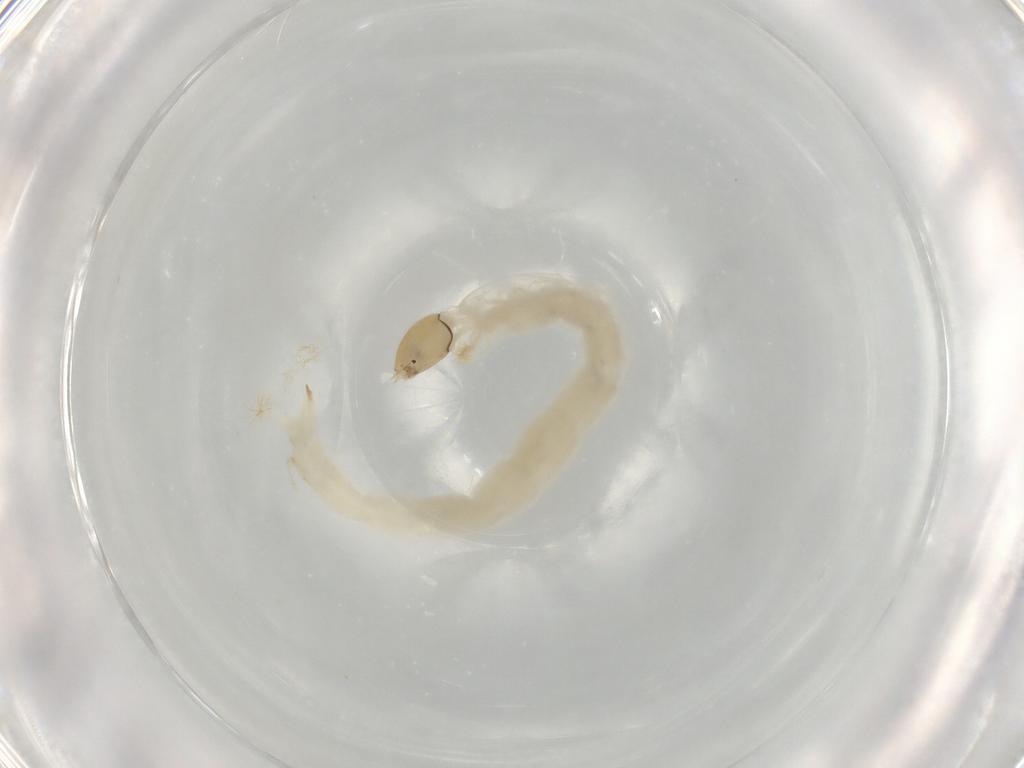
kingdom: Animalia
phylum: Arthropoda
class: Insecta
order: Diptera
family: Chironomidae
